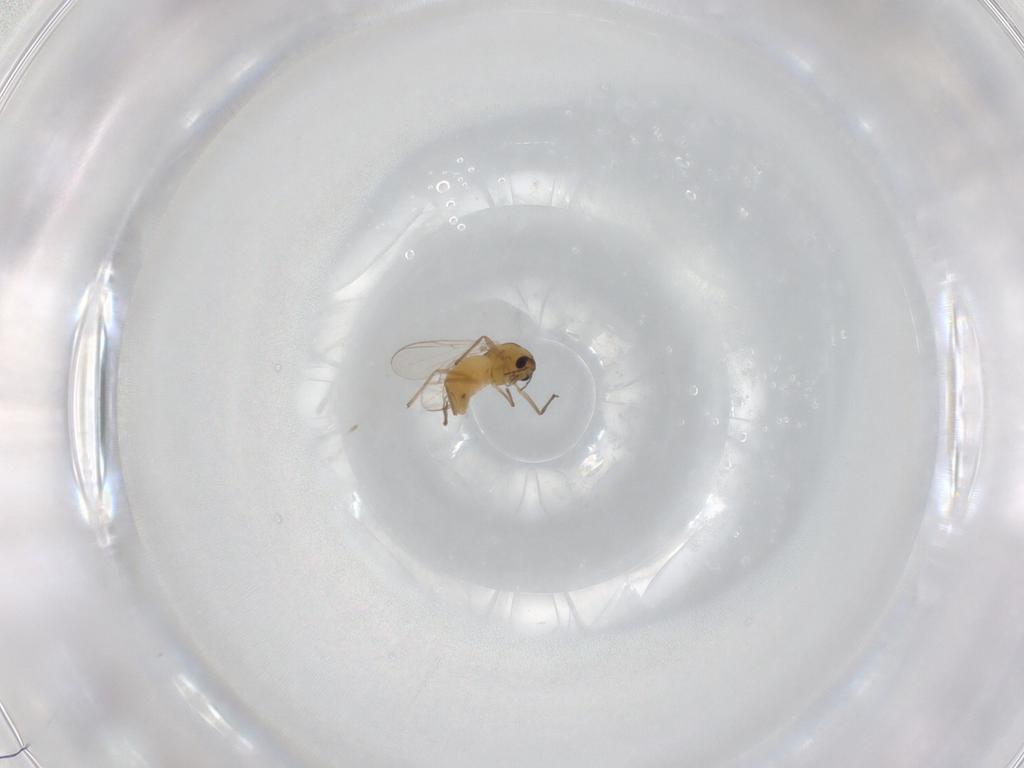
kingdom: Animalia
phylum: Arthropoda
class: Insecta
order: Diptera
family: Chironomidae
